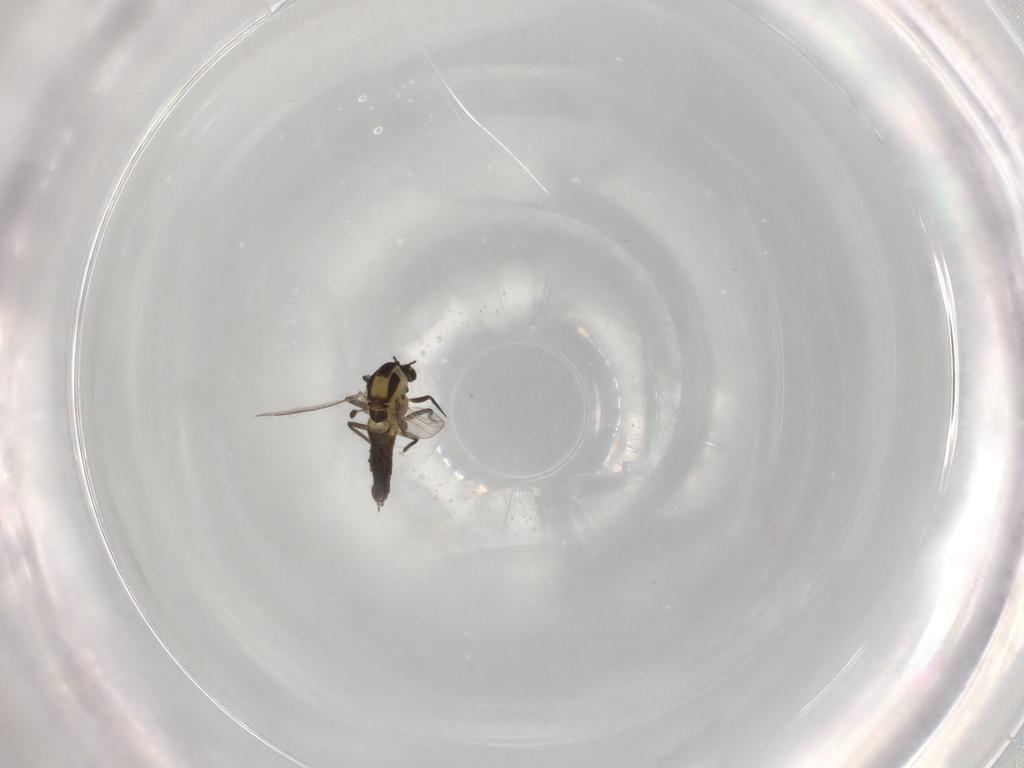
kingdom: Animalia
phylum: Arthropoda
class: Insecta
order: Diptera
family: Chironomidae
